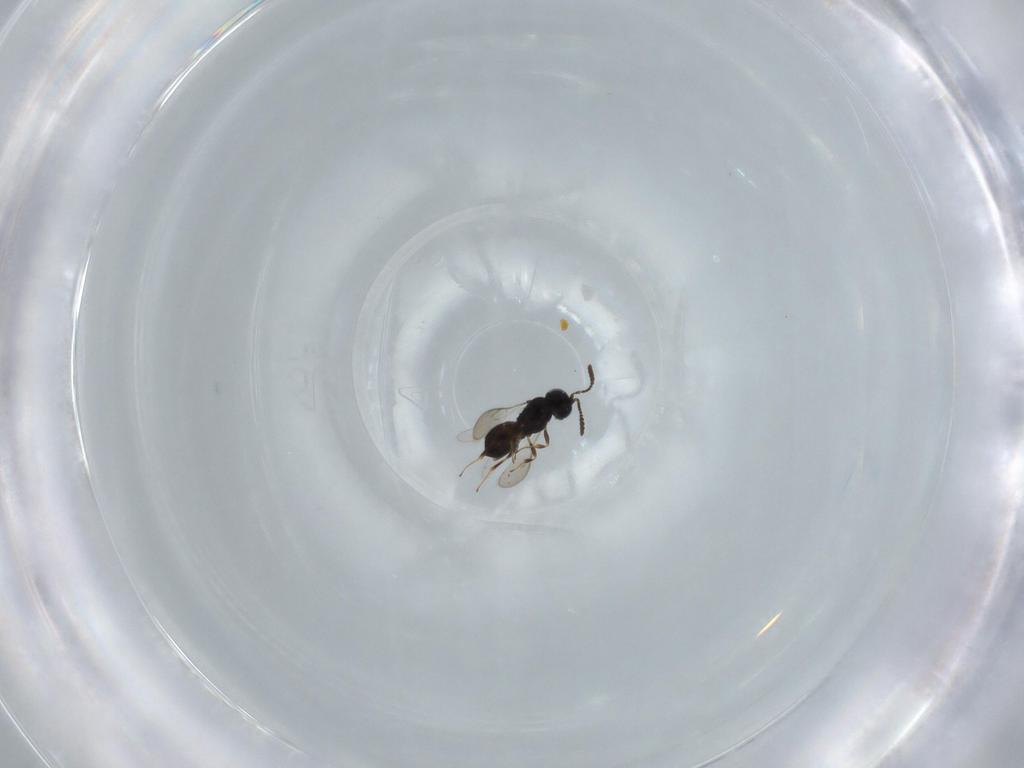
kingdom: Animalia
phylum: Arthropoda
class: Insecta
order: Hymenoptera
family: Scelionidae
